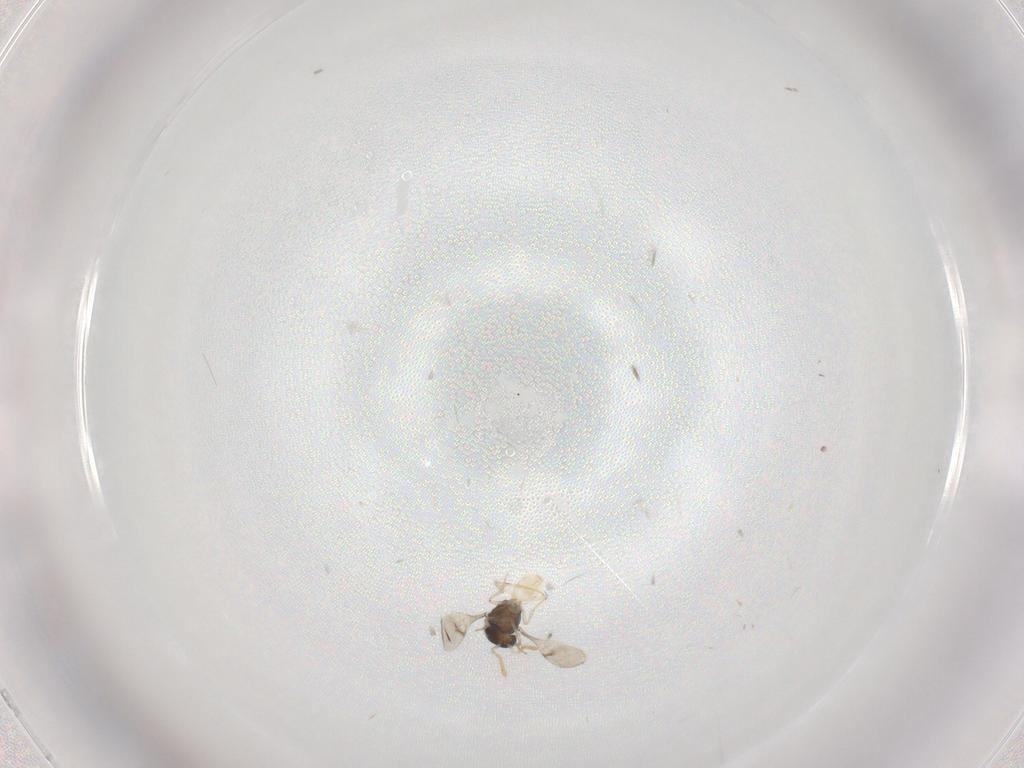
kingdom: Animalia
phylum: Arthropoda
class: Insecta
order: Hymenoptera
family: Scelionidae
